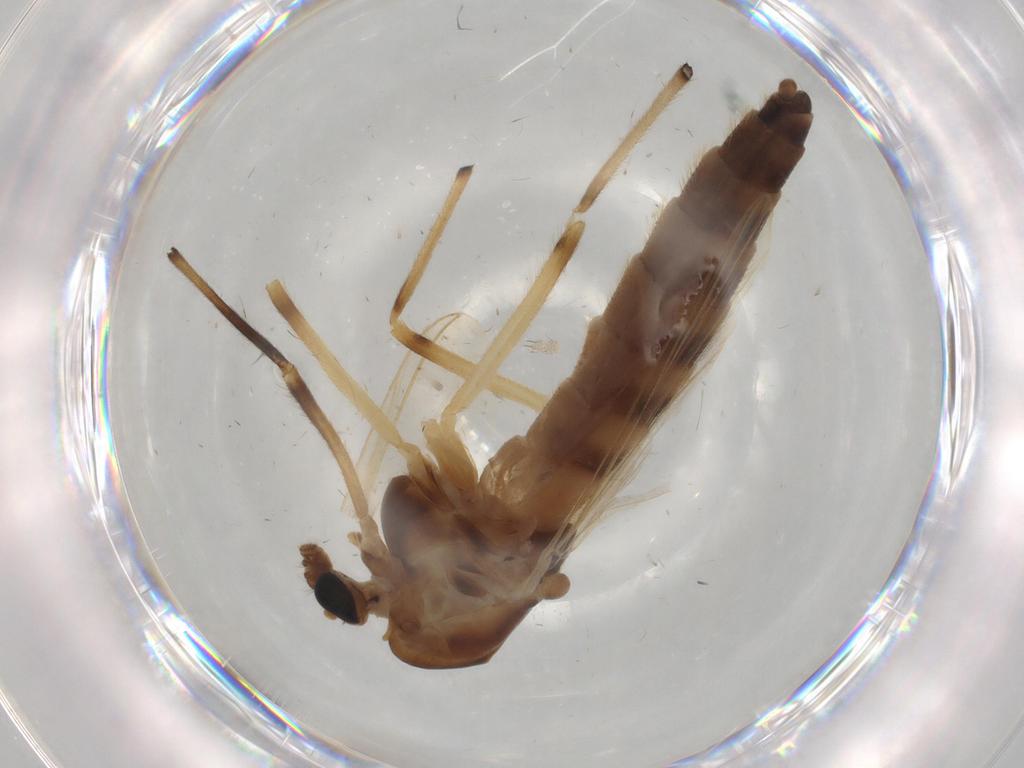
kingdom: Animalia
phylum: Arthropoda
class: Insecta
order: Diptera
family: Chironomidae
